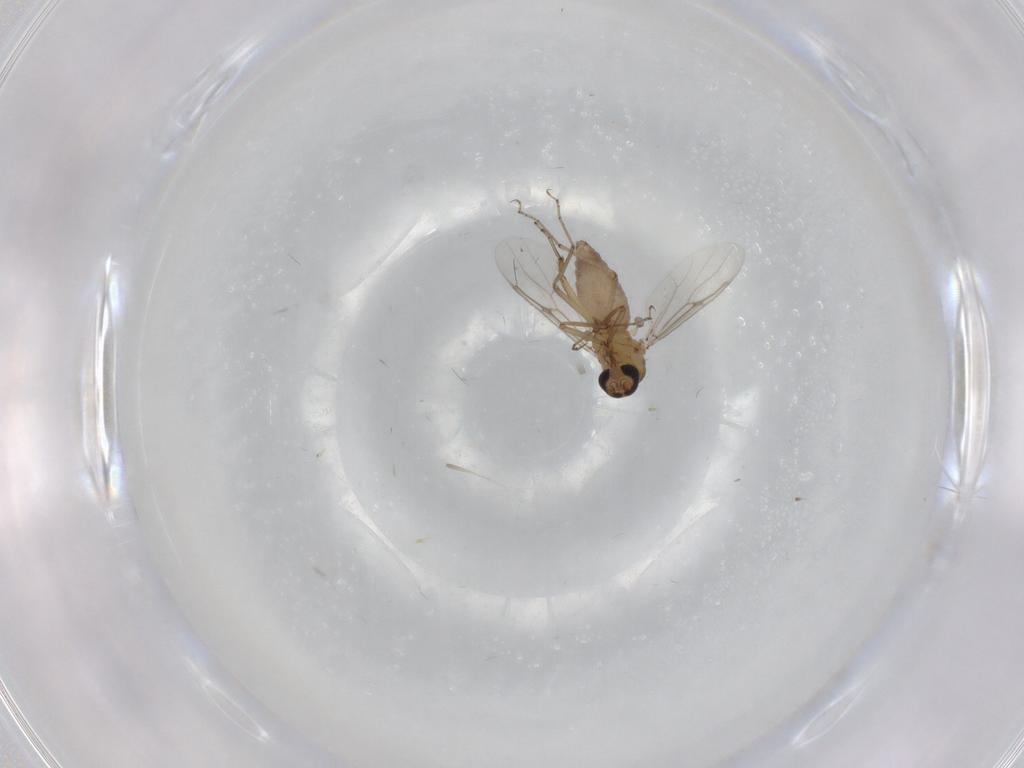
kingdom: Animalia
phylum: Arthropoda
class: Insecta
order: Diptera
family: Ceratopogonidae
